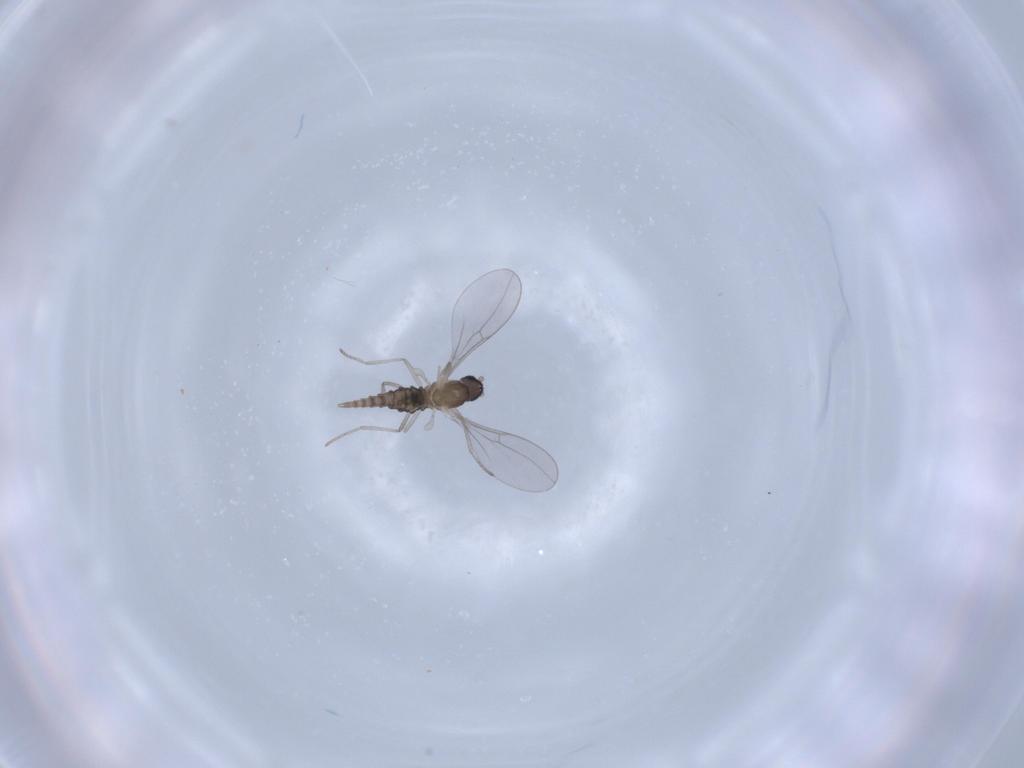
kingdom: Animalia
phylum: Arthropoda
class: Insecta
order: Diptera
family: Cecidomyiidae
